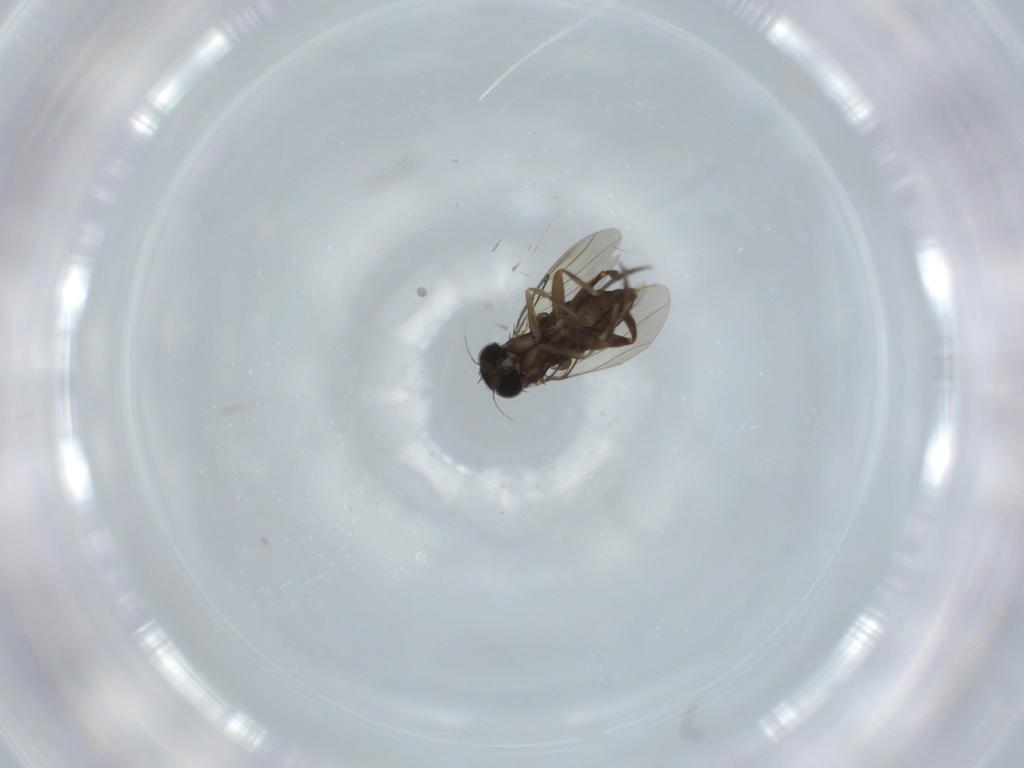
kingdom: Animalia
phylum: Arthropoda
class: Insecta
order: Diptera
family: Phoridae
